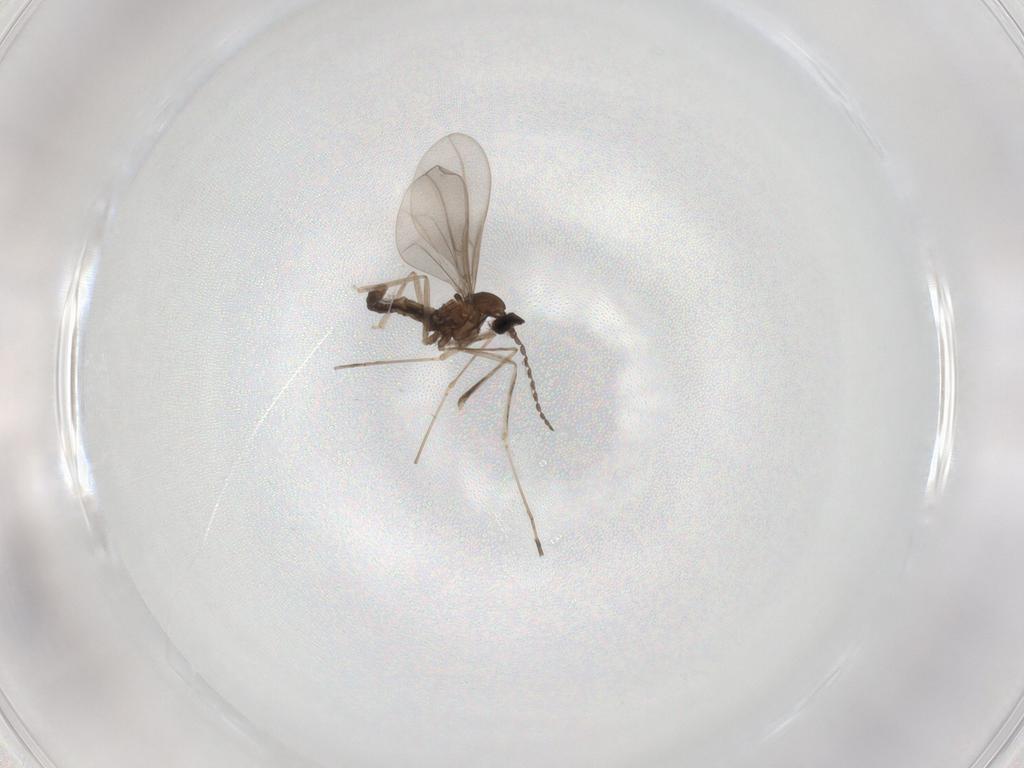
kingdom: Animalia
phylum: Arthropoda
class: Insecta
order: Diptera
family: Cecidomyiidae
